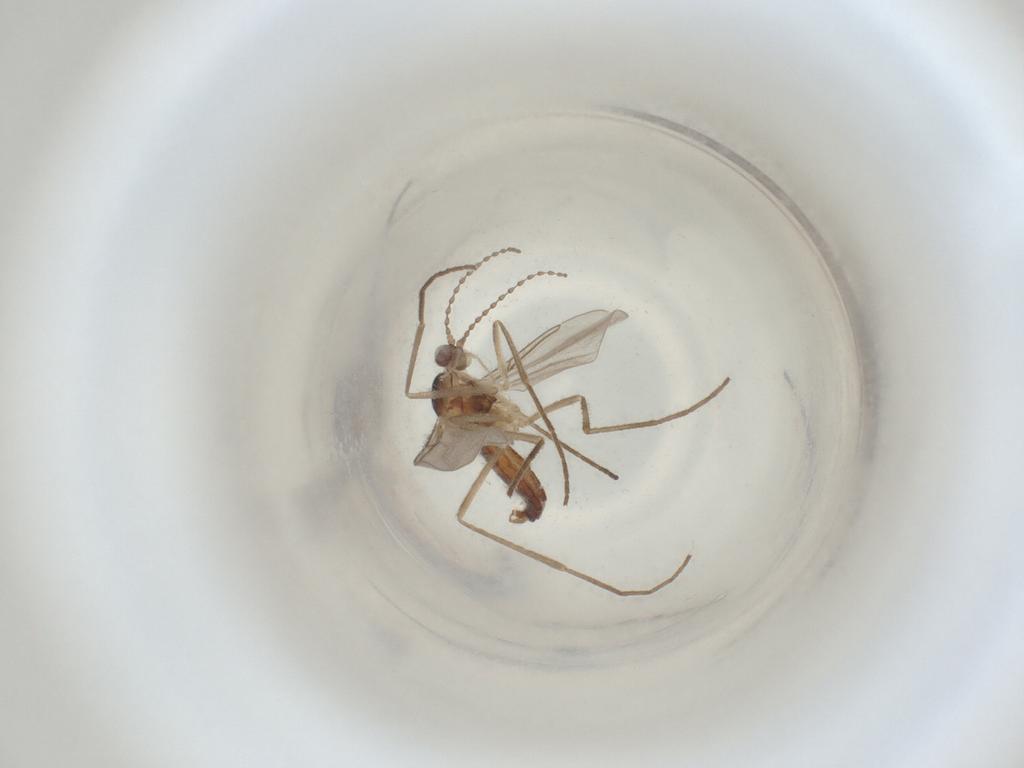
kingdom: Animalia
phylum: Arthropoda
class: Insecta
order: Diptera
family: Cecidomyiidae
